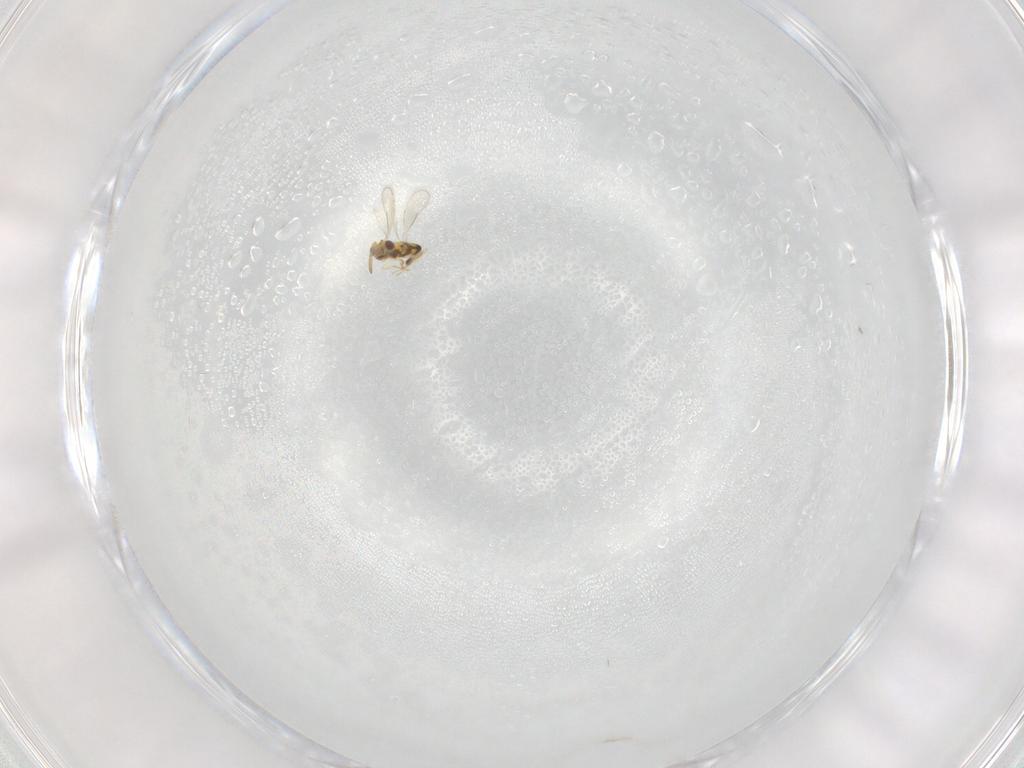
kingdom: Animalia
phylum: Arthropoda
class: Insecta
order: Hymenoptera
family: Aphelinidae
